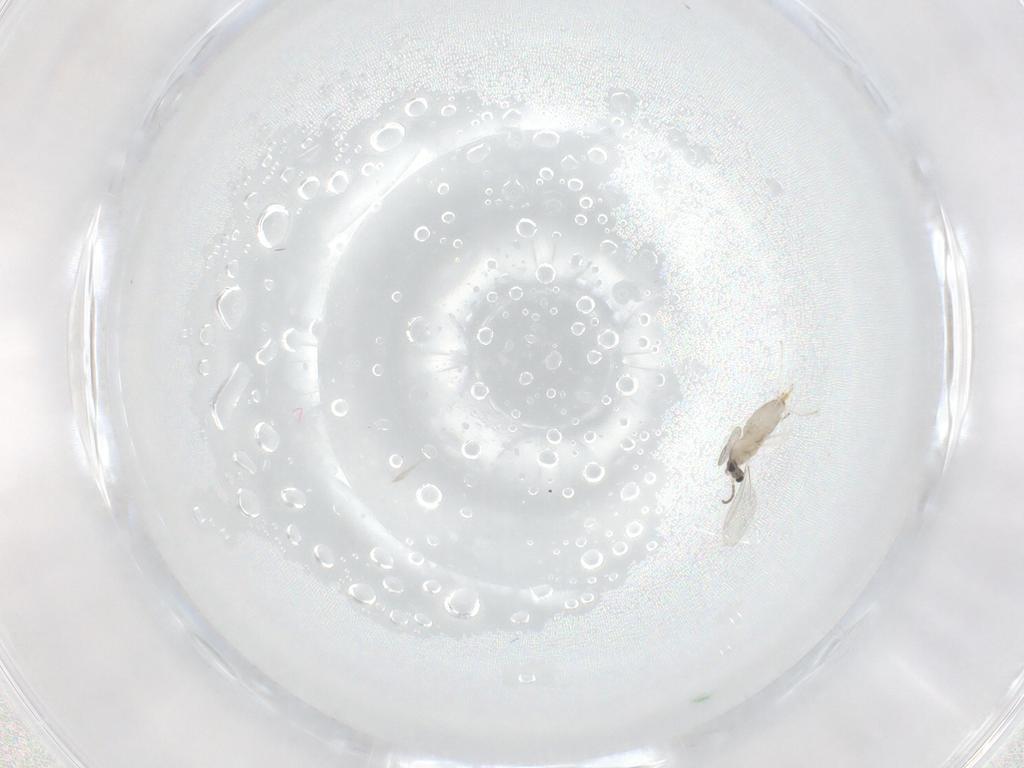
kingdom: Animalia
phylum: Arthropoda
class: Insecta
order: Diptera
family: Cecidomyiidae
